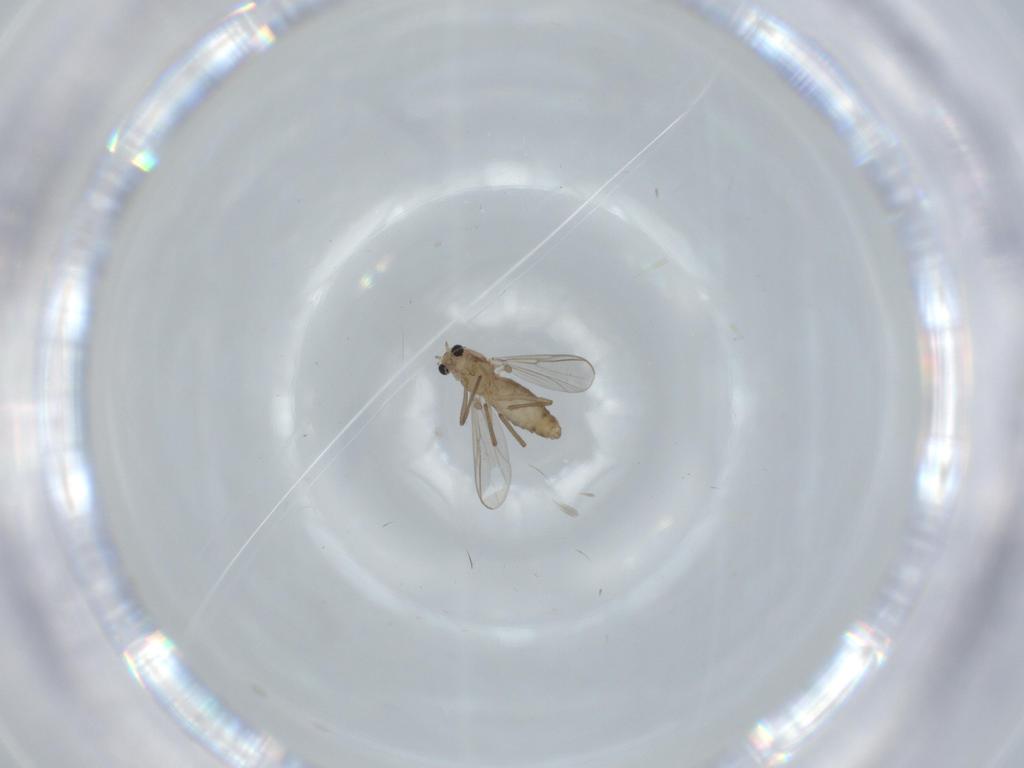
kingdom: Animalia
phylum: Arthropoda
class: Insecta
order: Diptera
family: Chironomidae
